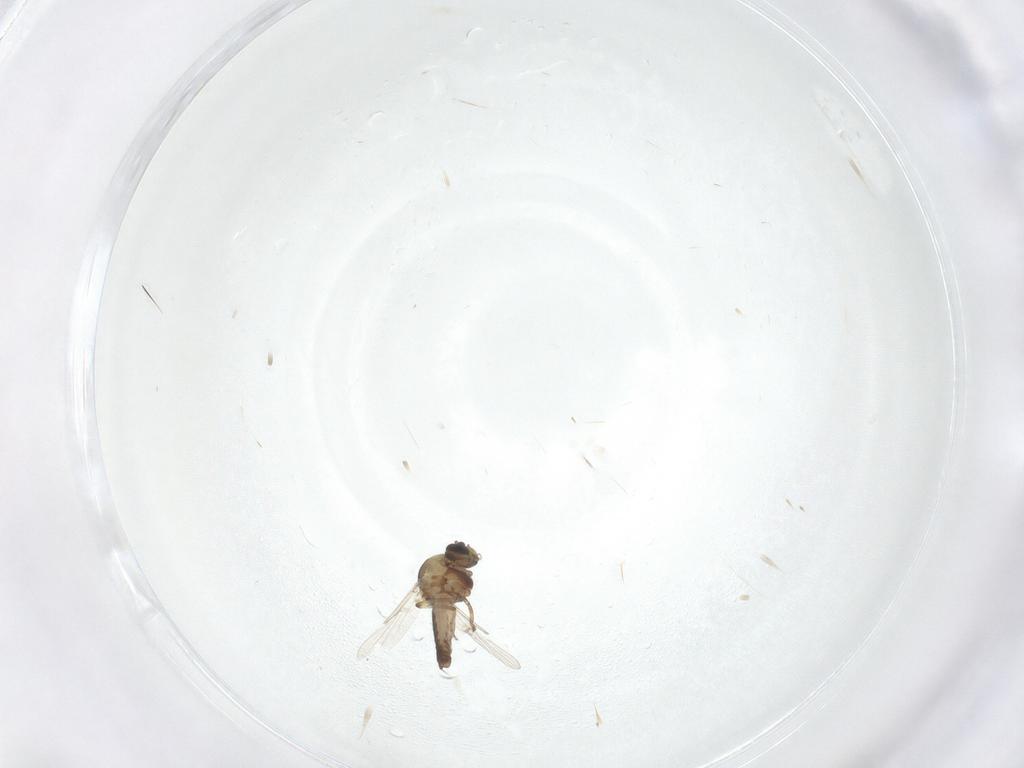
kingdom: Animalia
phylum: Arthropoda
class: Insecta
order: Diptera
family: Ceratopogonidae
